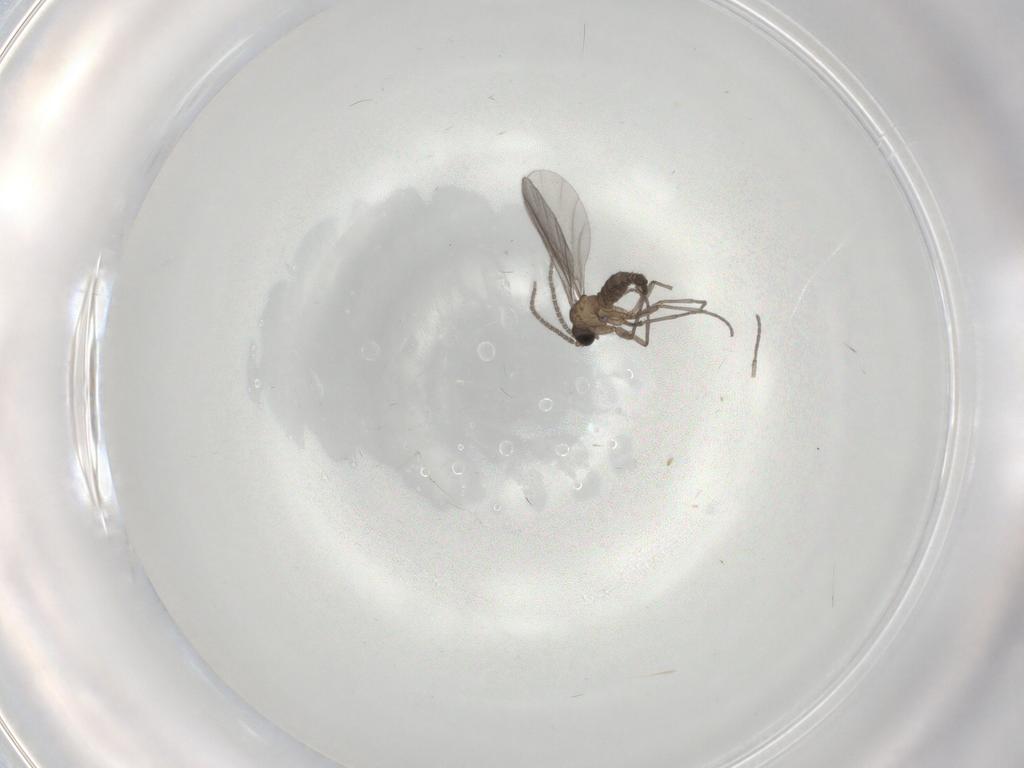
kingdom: Animalia
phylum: Arthropoda
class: Insecta
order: Diptera
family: Sciaridae
